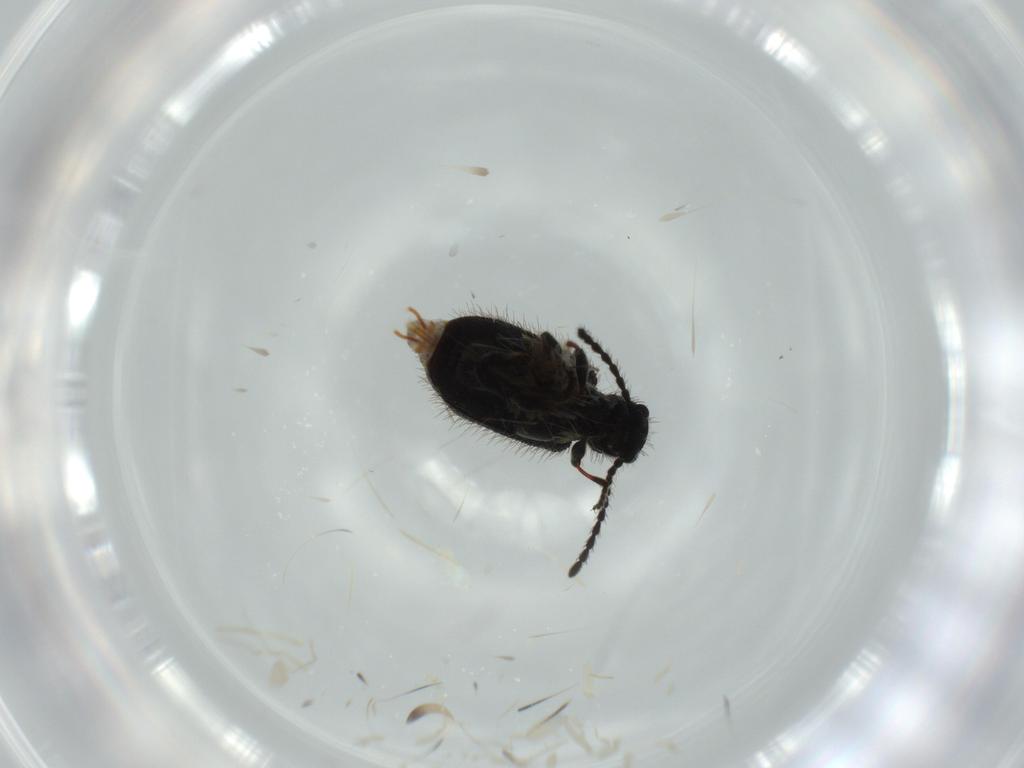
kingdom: Animalia
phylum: Arthropoda
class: Insecta
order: Coleoptera
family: Ptinidae
